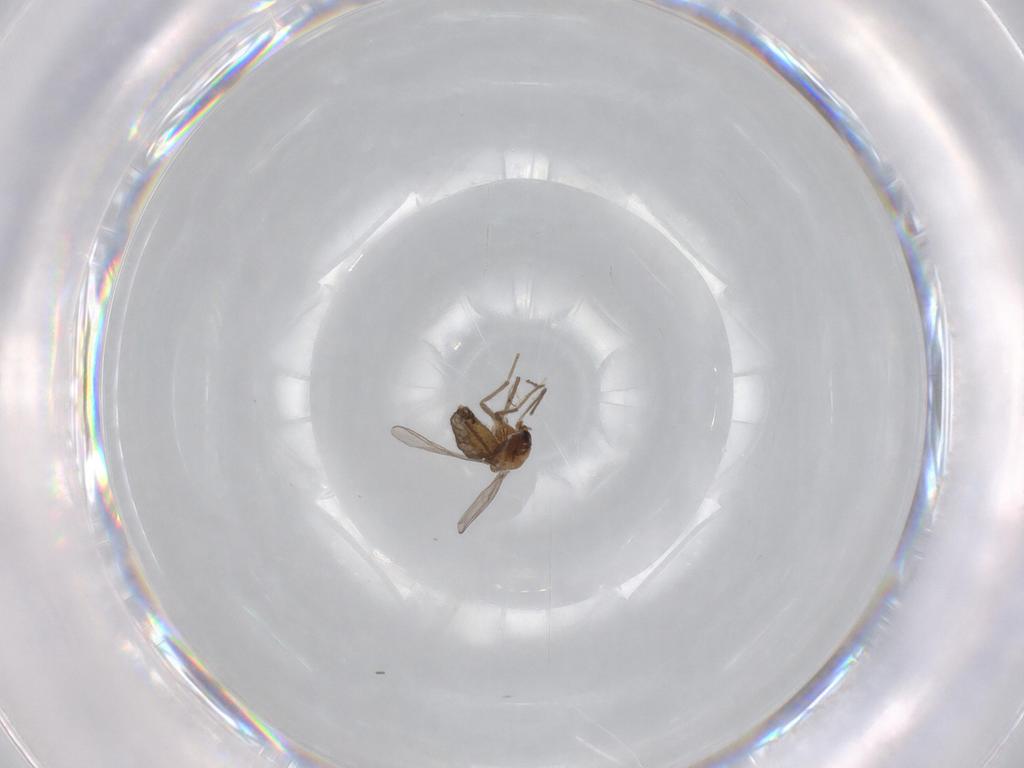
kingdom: Animalia
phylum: Arthropoda
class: Insecta
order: Diptera
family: Chironomidae
